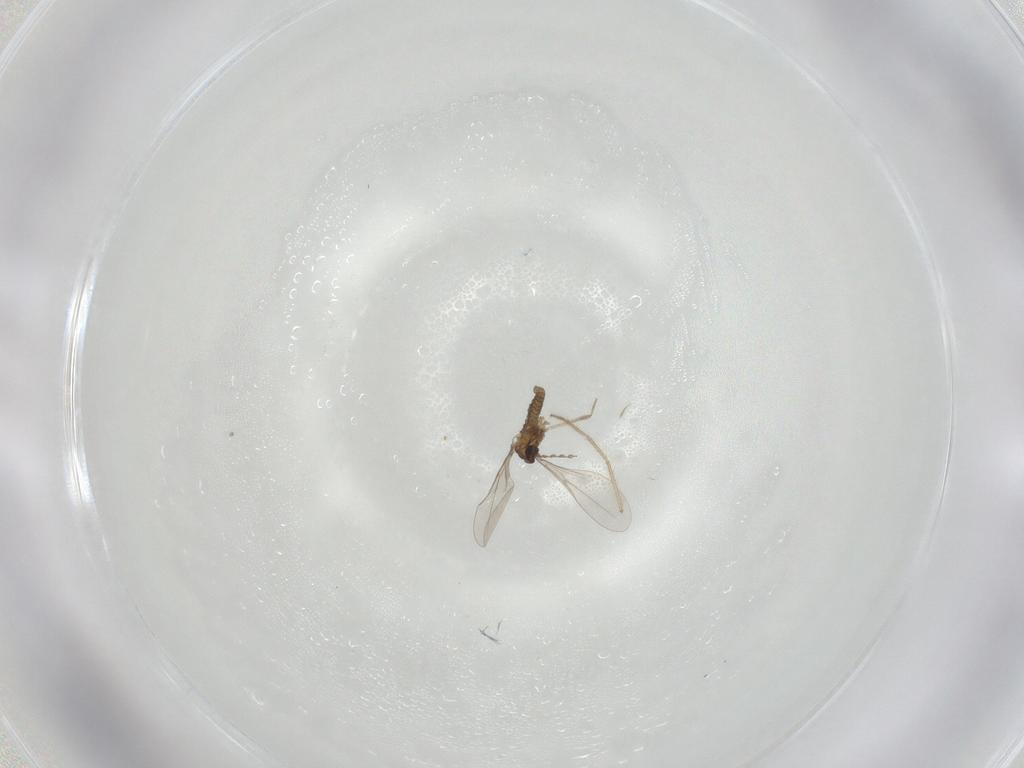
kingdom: Animalia
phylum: Arthropoda
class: Insecta
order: Diptera
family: Cecidomyiidae
